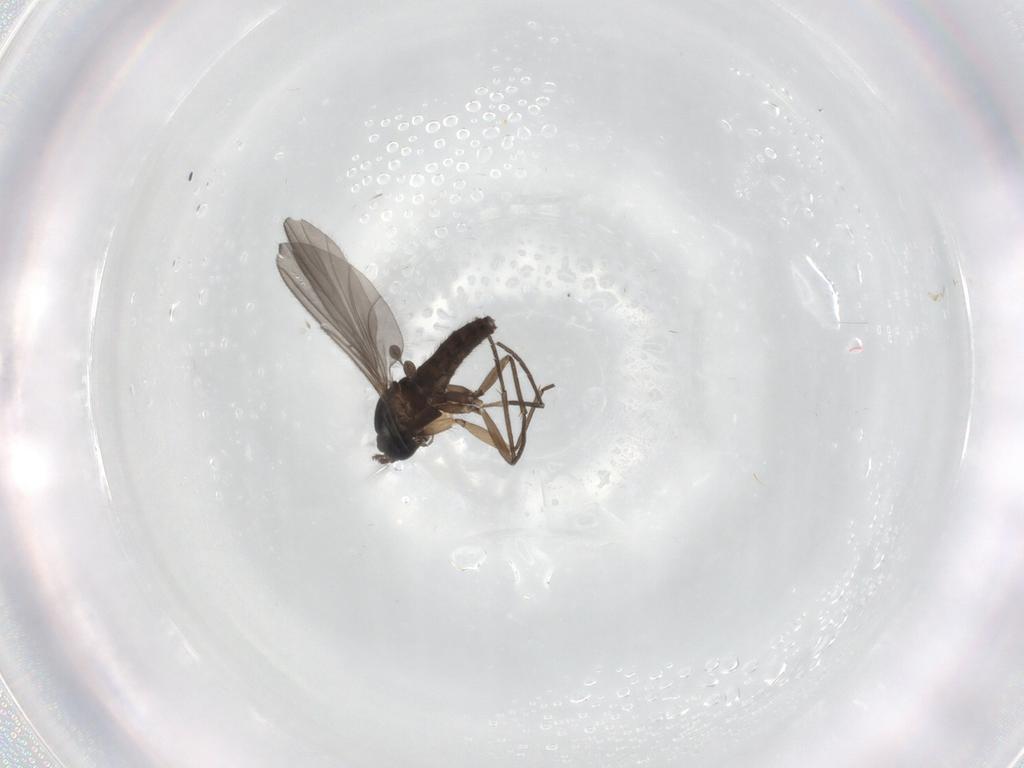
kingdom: Animalia
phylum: Arthropoda
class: Insecta
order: Diptera
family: Sciaridae
